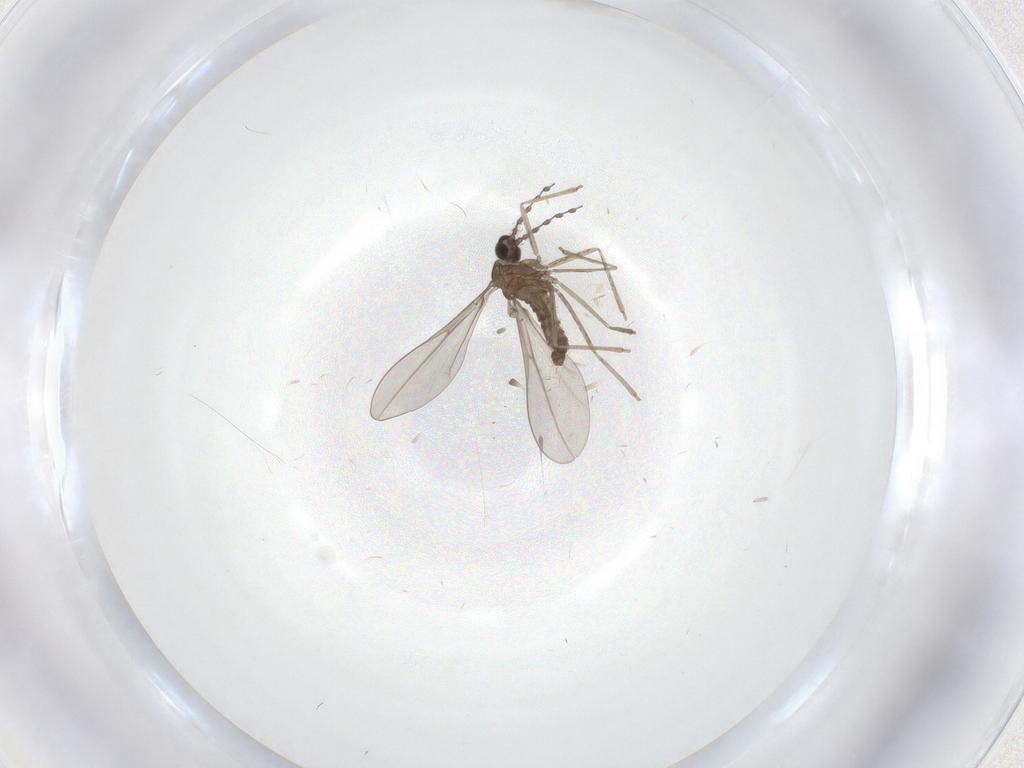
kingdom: Animalia
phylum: Arthropoda
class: Insecta
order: Diptera
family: Cecidomyiidae
